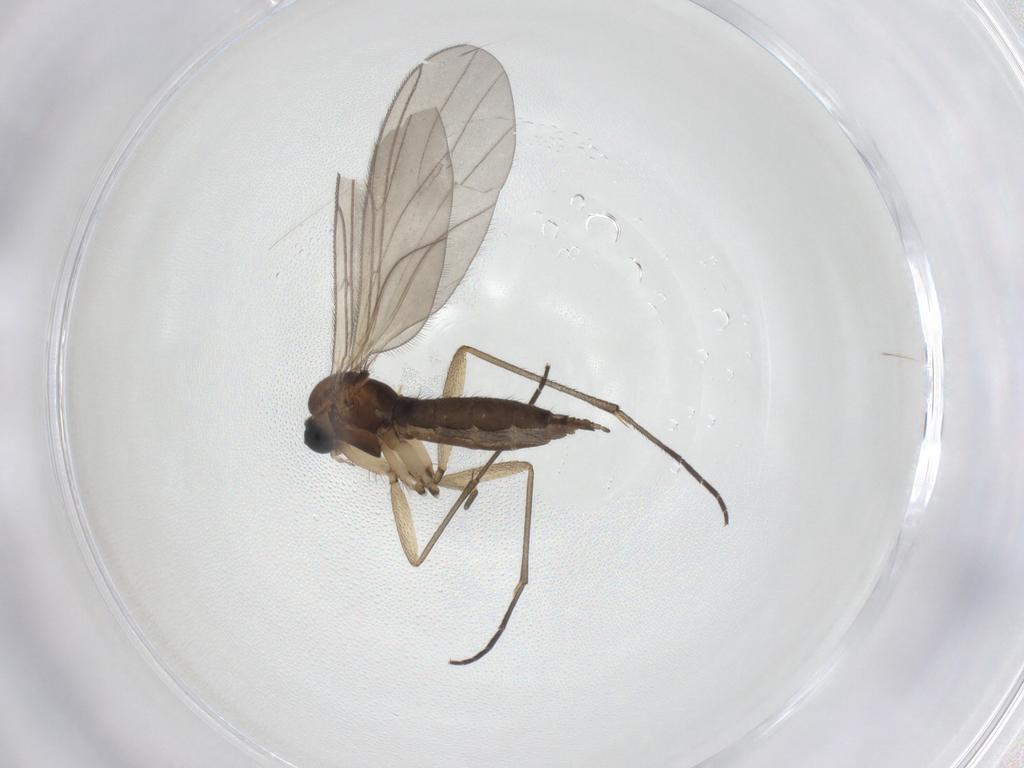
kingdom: Animalia
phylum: Arthropoda
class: Insecta
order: Diptera
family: Sciaridae
